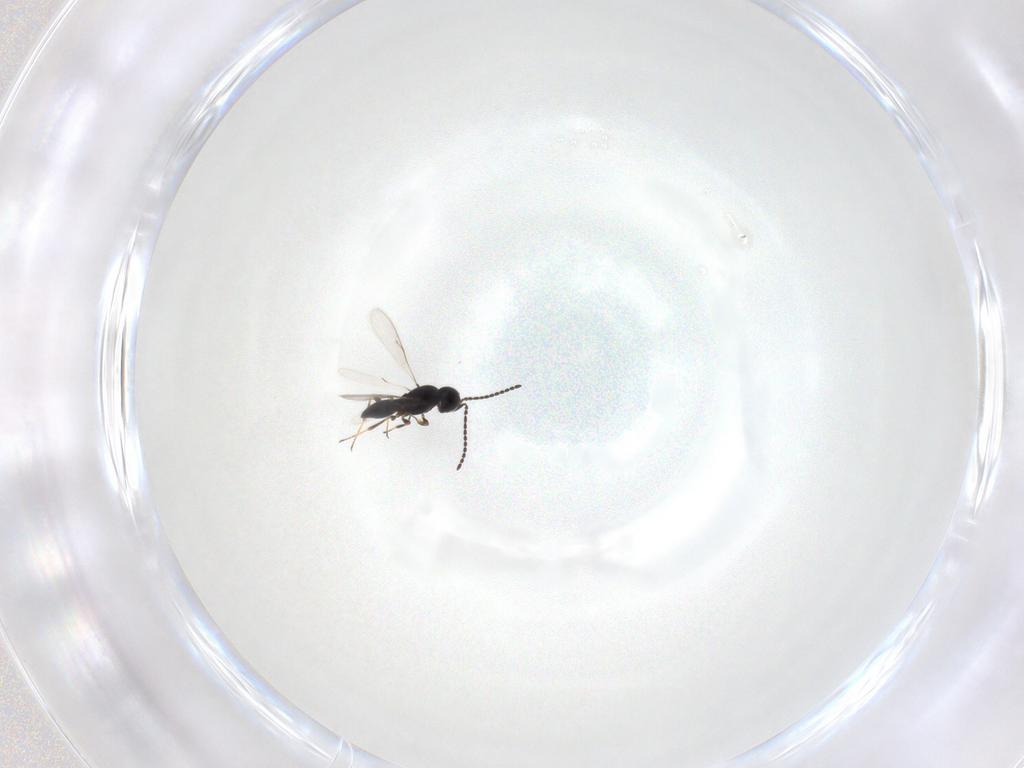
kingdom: Animalia
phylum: Arthropoda
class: Insecta
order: Hymenoptera
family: Scelionidae
